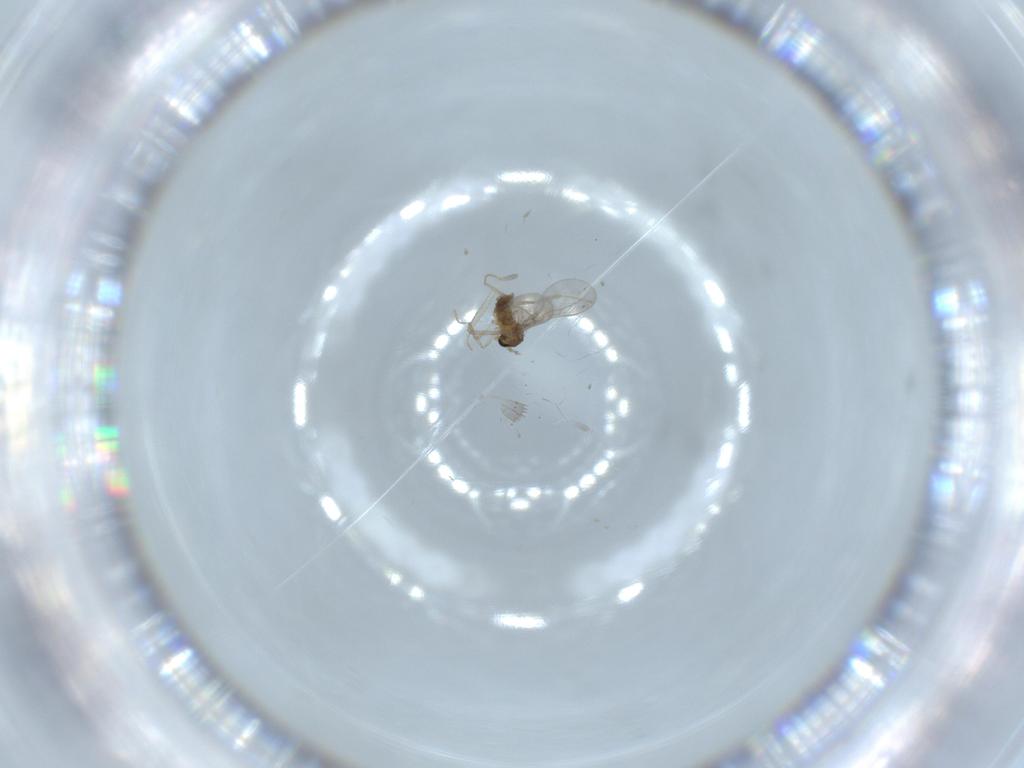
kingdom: Animalia
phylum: Arthropoda
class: Insecta
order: Diptera
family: Cecidomyiidae
